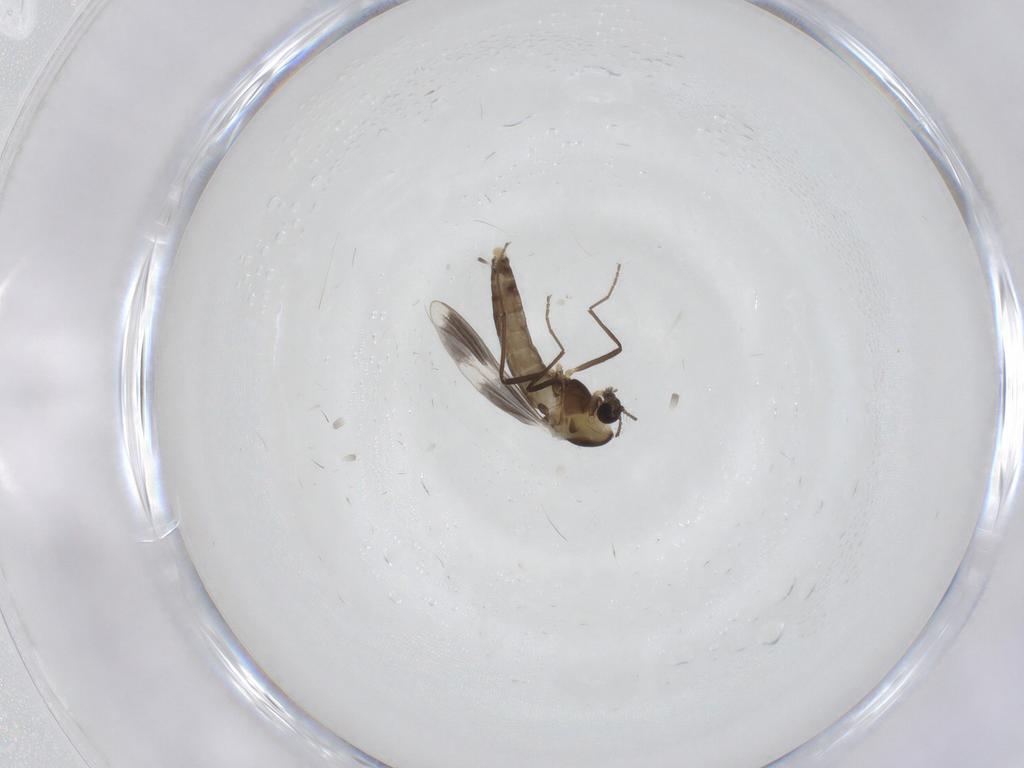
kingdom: Animalia
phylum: Arthropoda
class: Insecta
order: Diptera
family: Chironomidae
